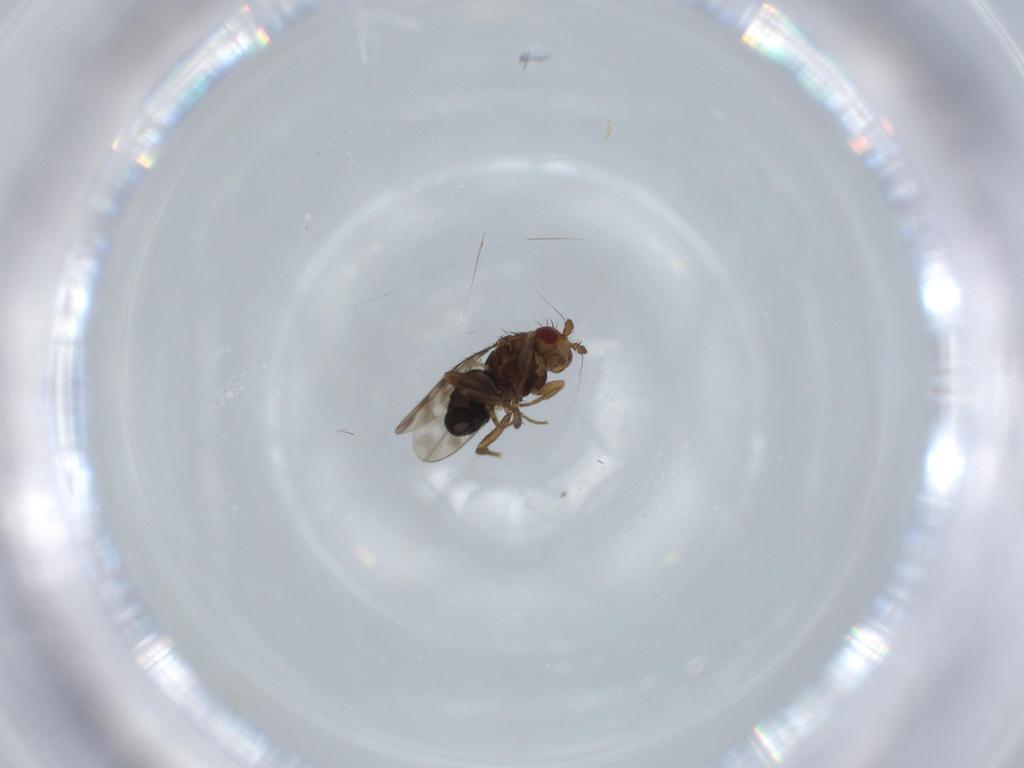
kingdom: Animalia
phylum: Arthropoda
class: Insecta
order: Diptera
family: Sphaeroceridae
